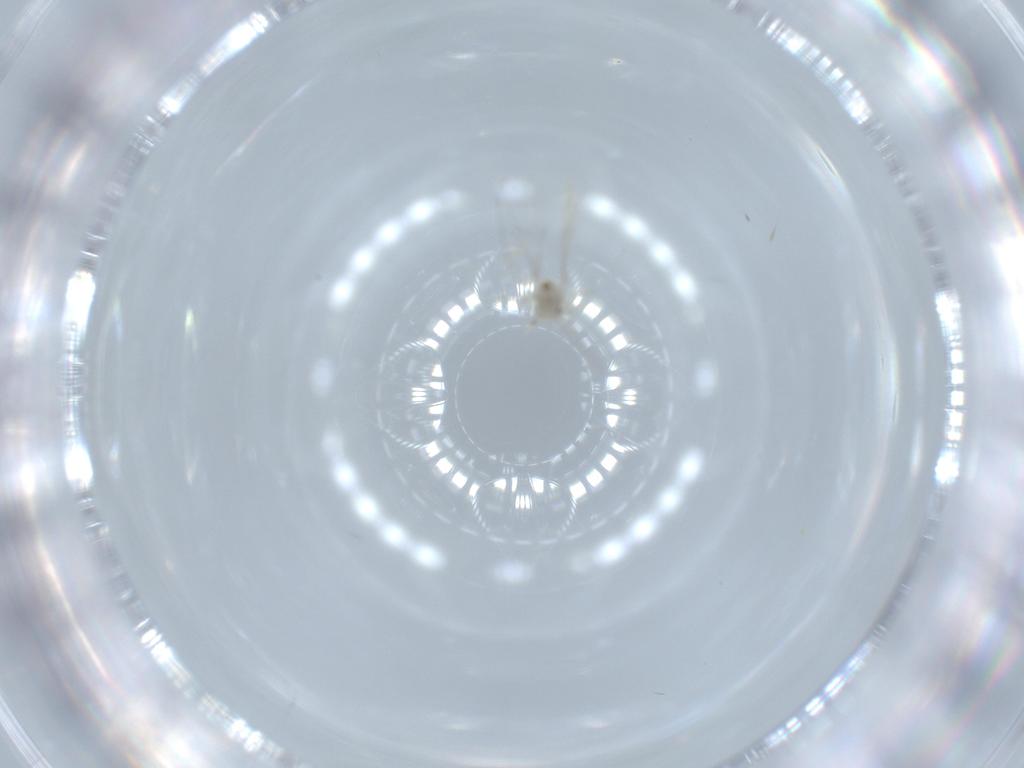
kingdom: Animalia
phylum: Arthropoda
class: Insecta
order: Diptera
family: Cecidomyiidae
